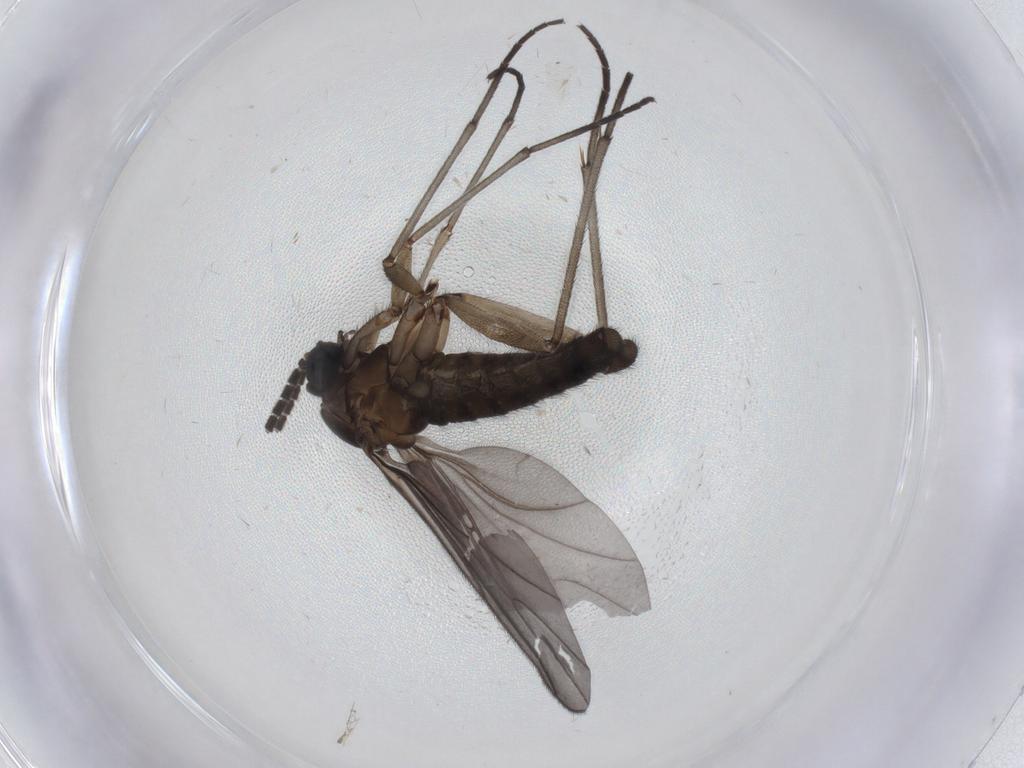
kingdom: Animalia
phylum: Arthropoda
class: Insecta
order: Diptera
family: Sciaridae
